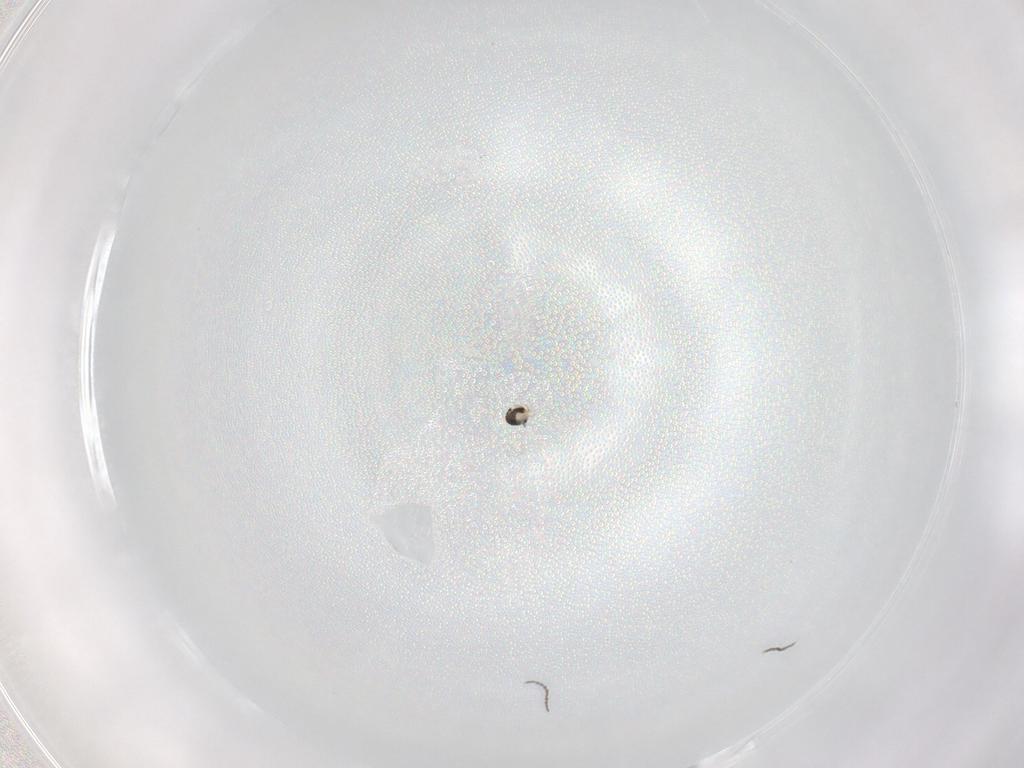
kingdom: Animalia
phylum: Arthropoda
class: Insecta
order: Diptera
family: Cecidomyiidae
